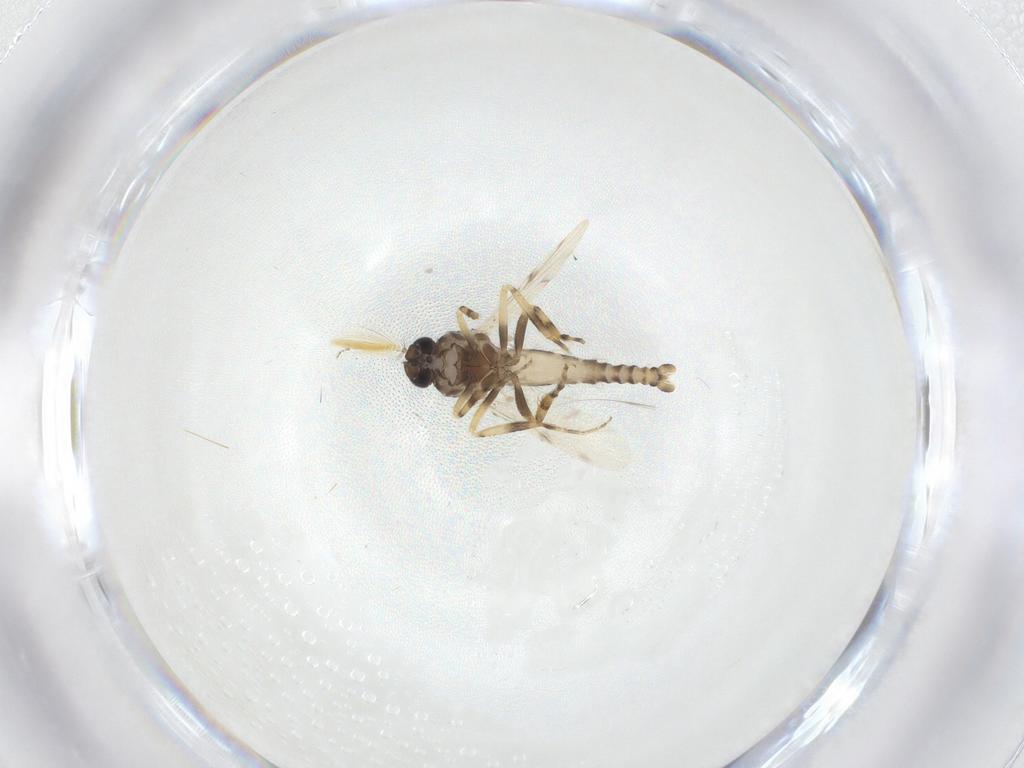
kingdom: Animalia
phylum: Arthropoda
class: Insecta
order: Diptera
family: Ceratopogonidae
